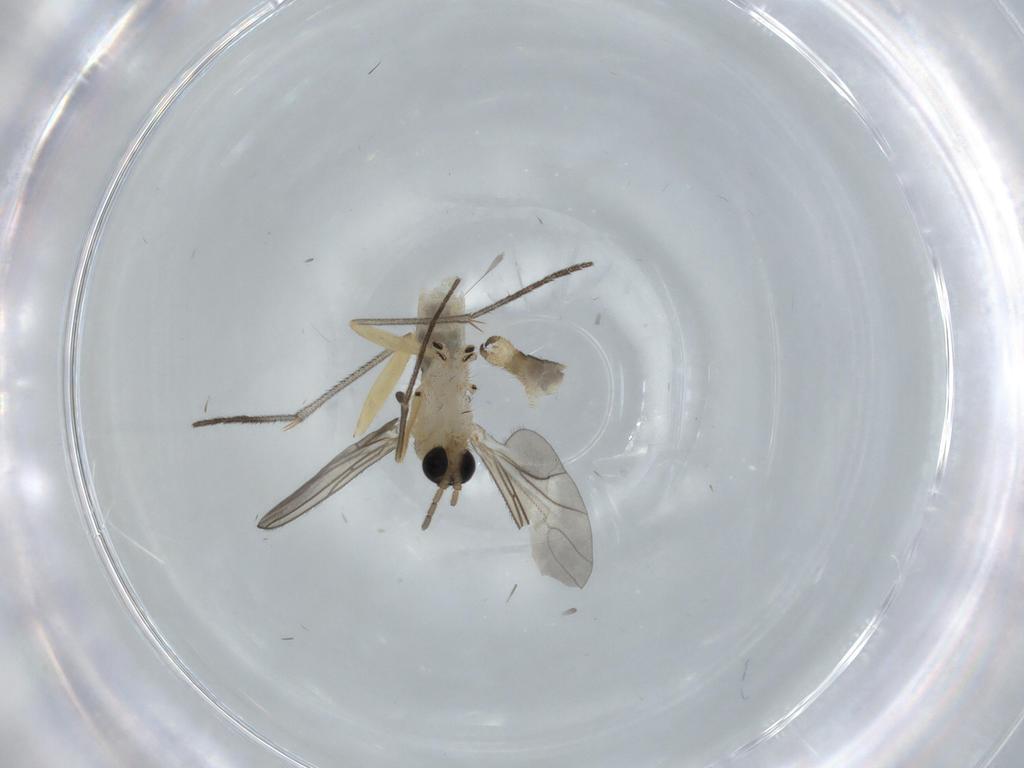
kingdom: Animalia
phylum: Arthropoda
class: Insecta
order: Diptera
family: Sciaridae
